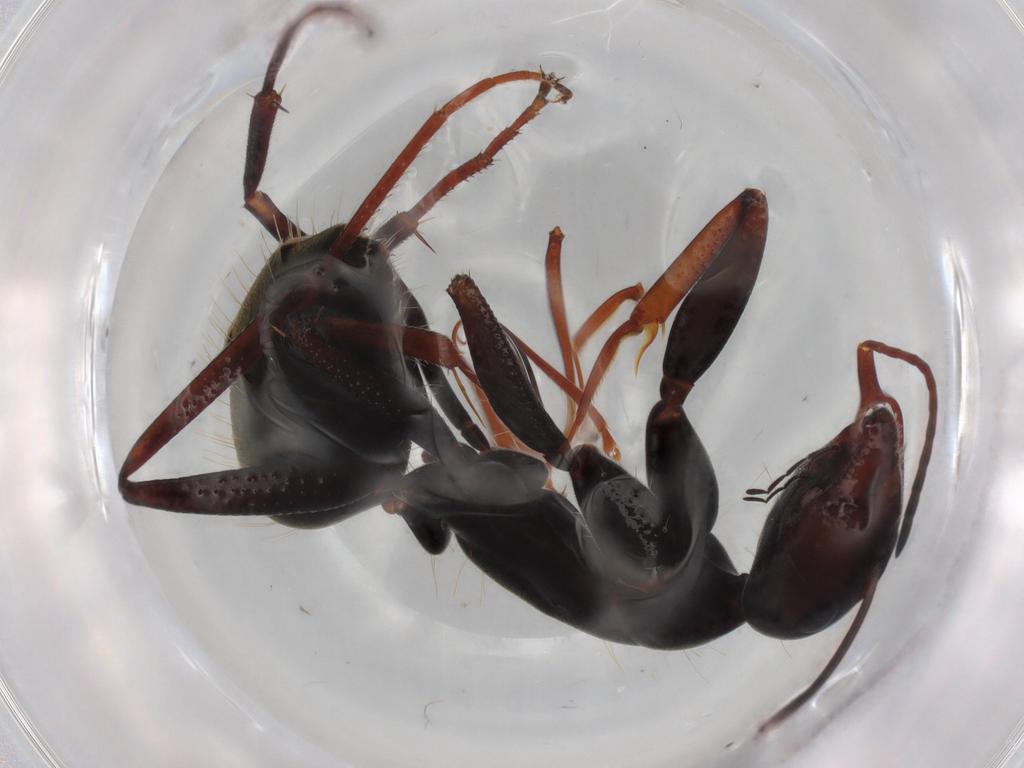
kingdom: Animalia
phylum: Arthropoda
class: Insecta
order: Hymenoptera
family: Formicidae
